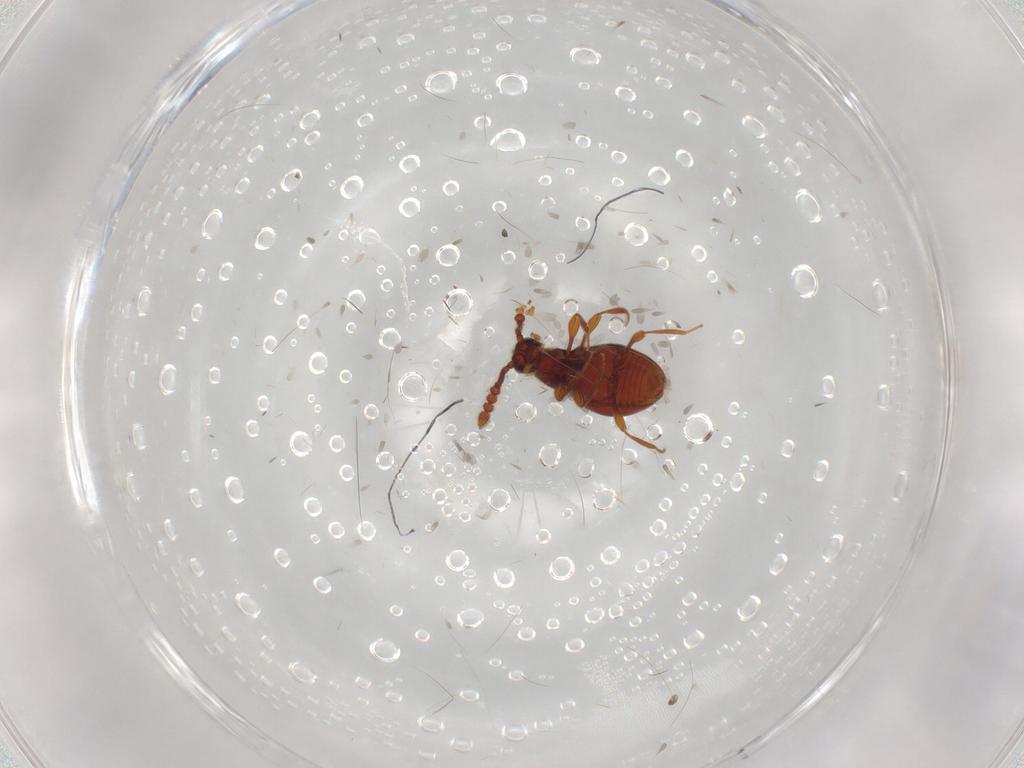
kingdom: Animalia
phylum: Arthropoda
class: Insecta
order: Coleoptera
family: Staphylinidae
